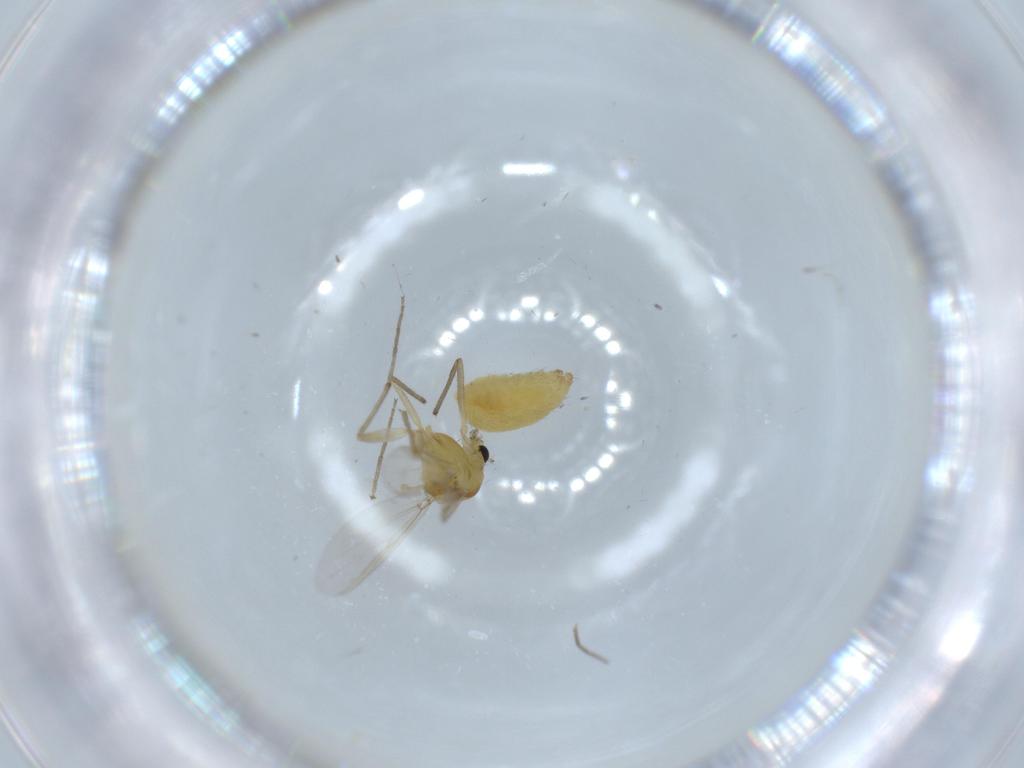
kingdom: Animalia
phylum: Arthropoda
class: Insecta
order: Diptera
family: Chironomidae
